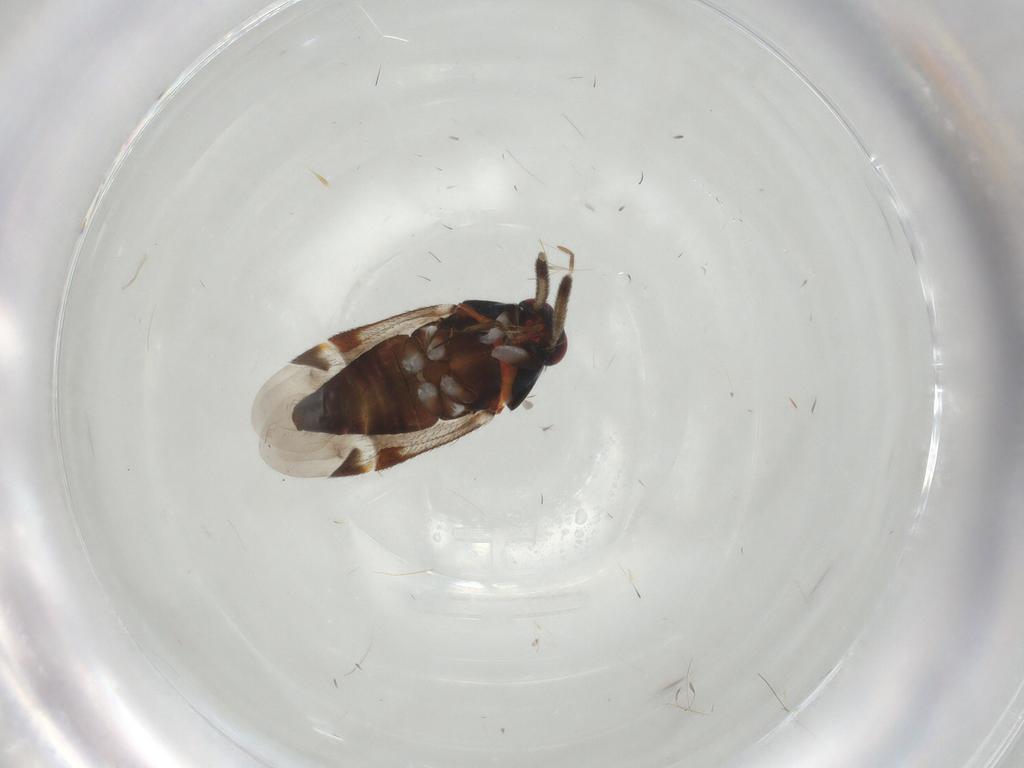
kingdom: Animalia
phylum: Arthropoda
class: Insecta
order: Hemiptera
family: Miridae
